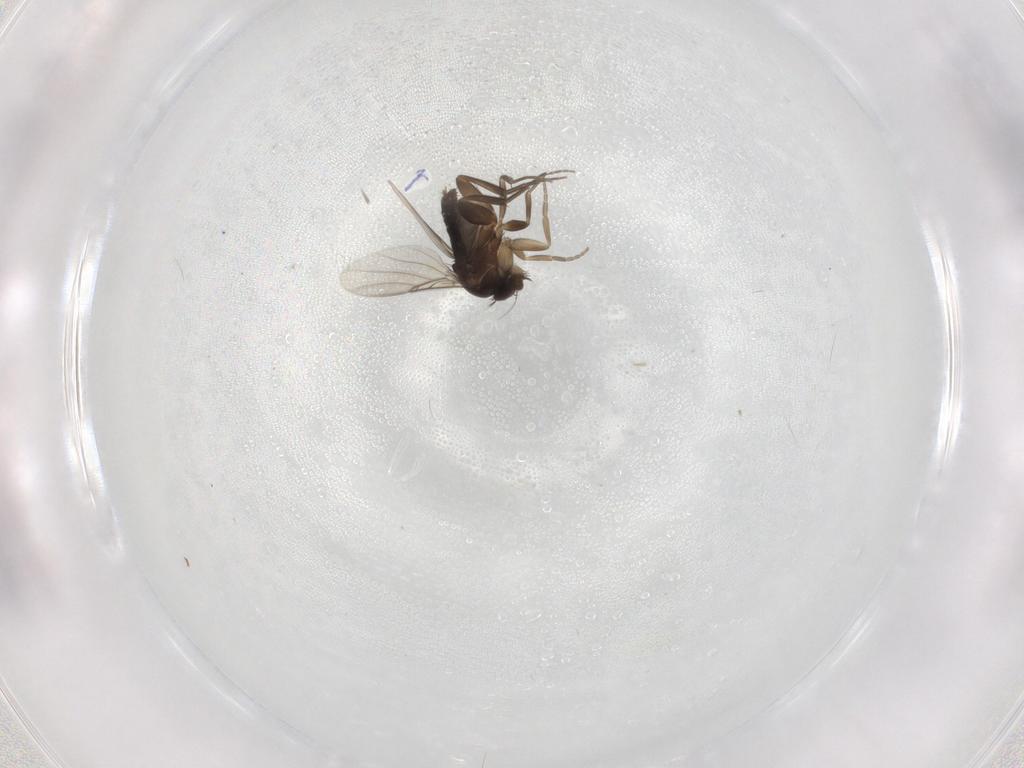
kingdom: Animalia
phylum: Arthropoda
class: Insecta
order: Diptera
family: Phoridae
